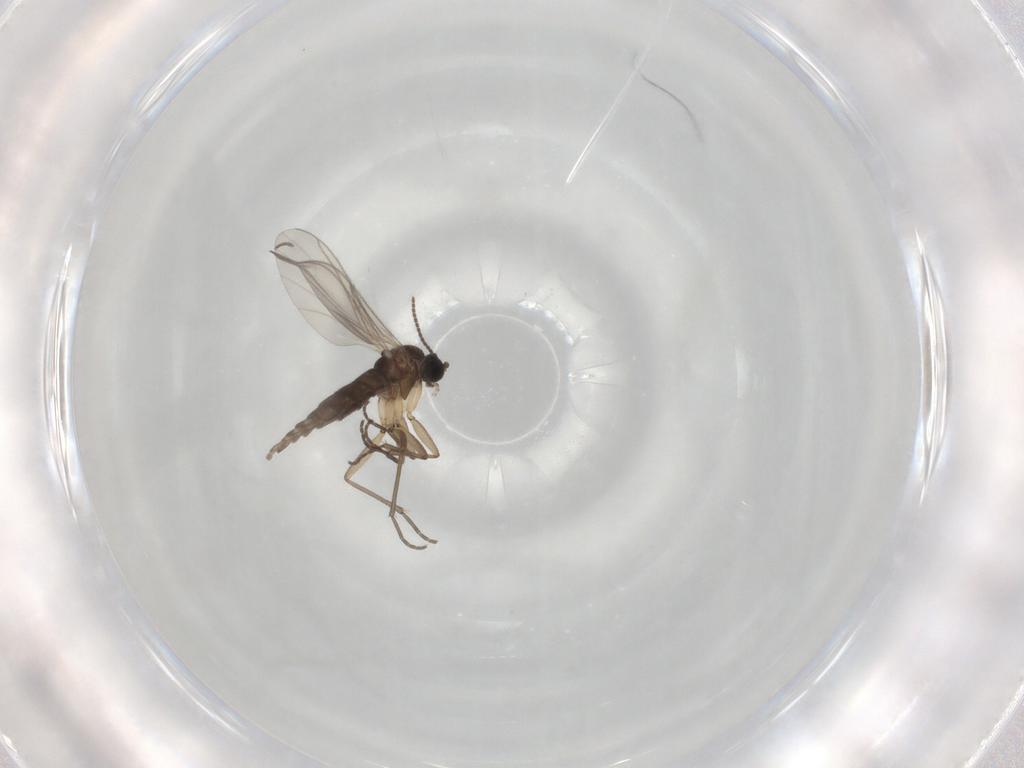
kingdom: Animalia
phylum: Arthropoda
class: Insecta
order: Diptera
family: Sciaridae
